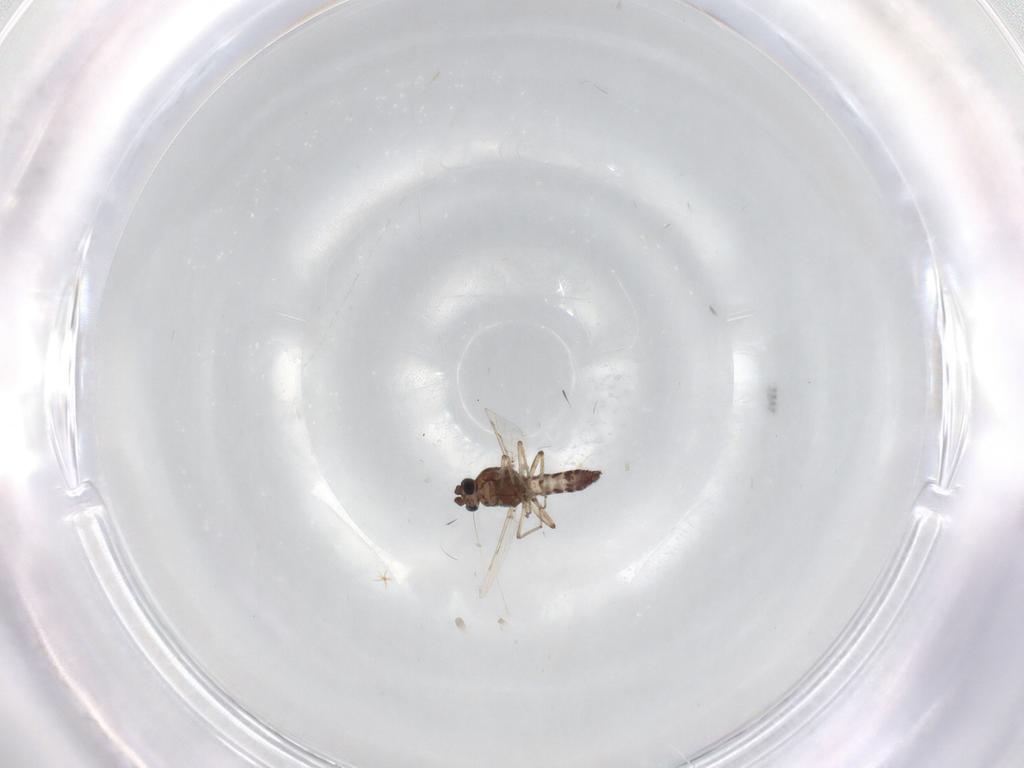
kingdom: Animalia
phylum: Arthropoda
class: Insecta
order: Diptera
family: Ceratopogonidae
